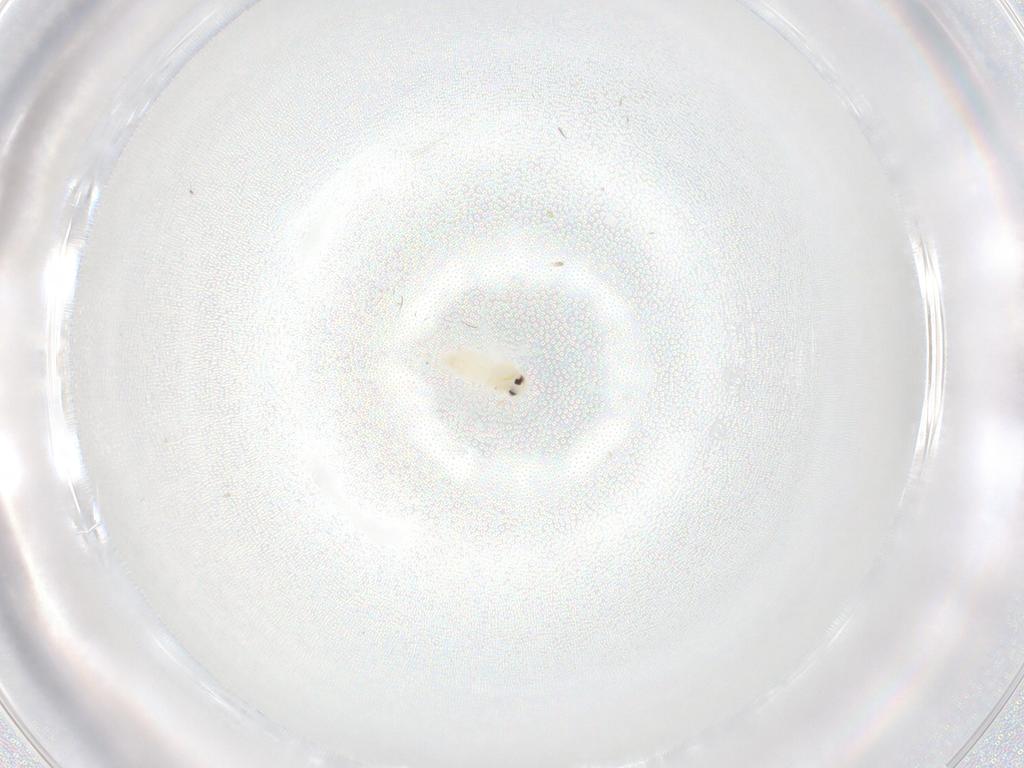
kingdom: Animalia
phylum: Arthropoda
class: Insecta
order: Hemiptera
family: Aleyrodidae
